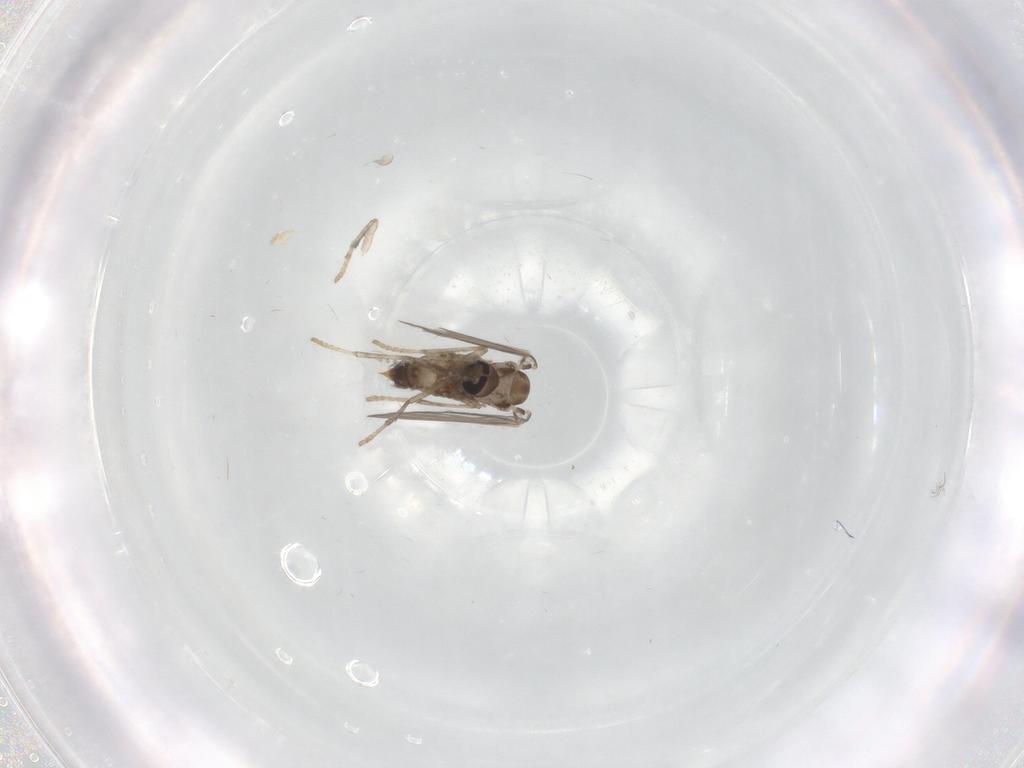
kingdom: Animalia
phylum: Arthropoda
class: Insecta
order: Diptera
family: Psychodidae
